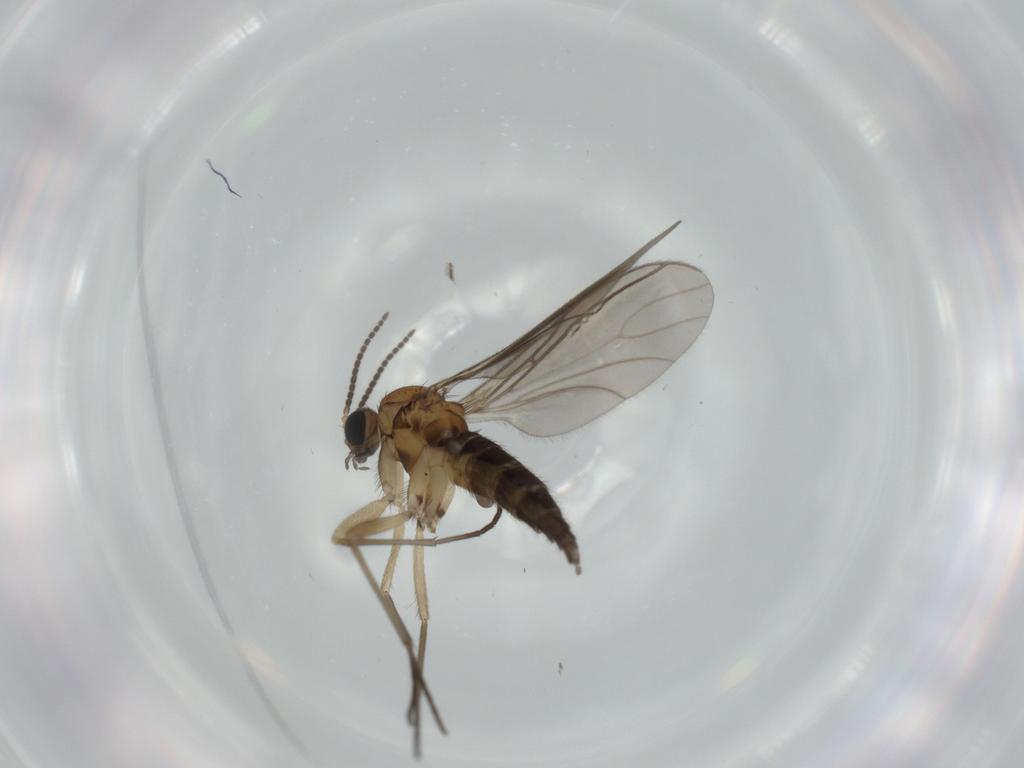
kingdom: Animalia
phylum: Arthropoda
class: Insecta
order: Diptera
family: Sciaridae
